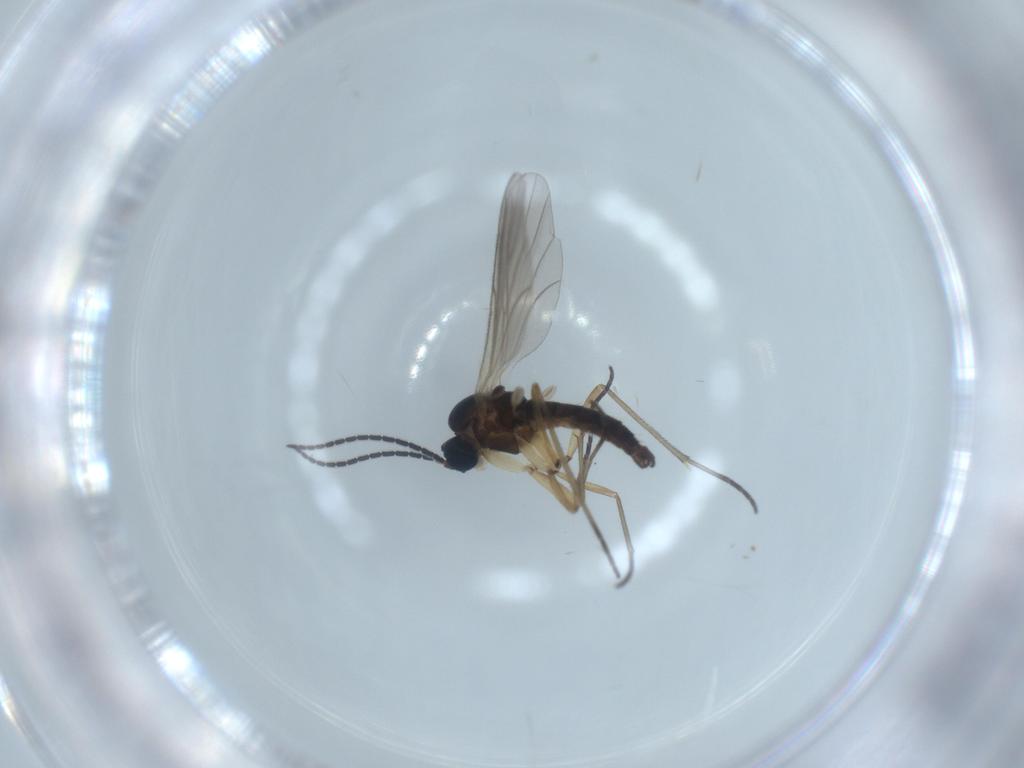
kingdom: Animalia
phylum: Arthropoda
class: Insecta
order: Diptera
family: Sciaridae
